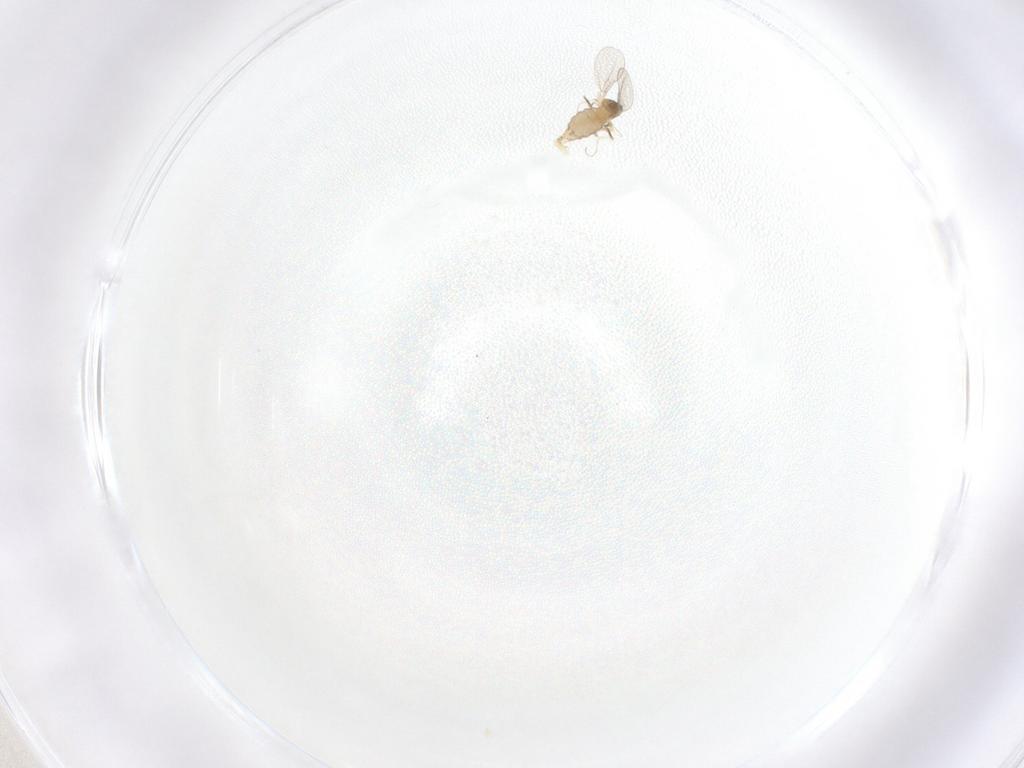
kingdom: Animalia
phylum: Arthropoda
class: Insecta
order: Diptera
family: Cecidomyiidae
